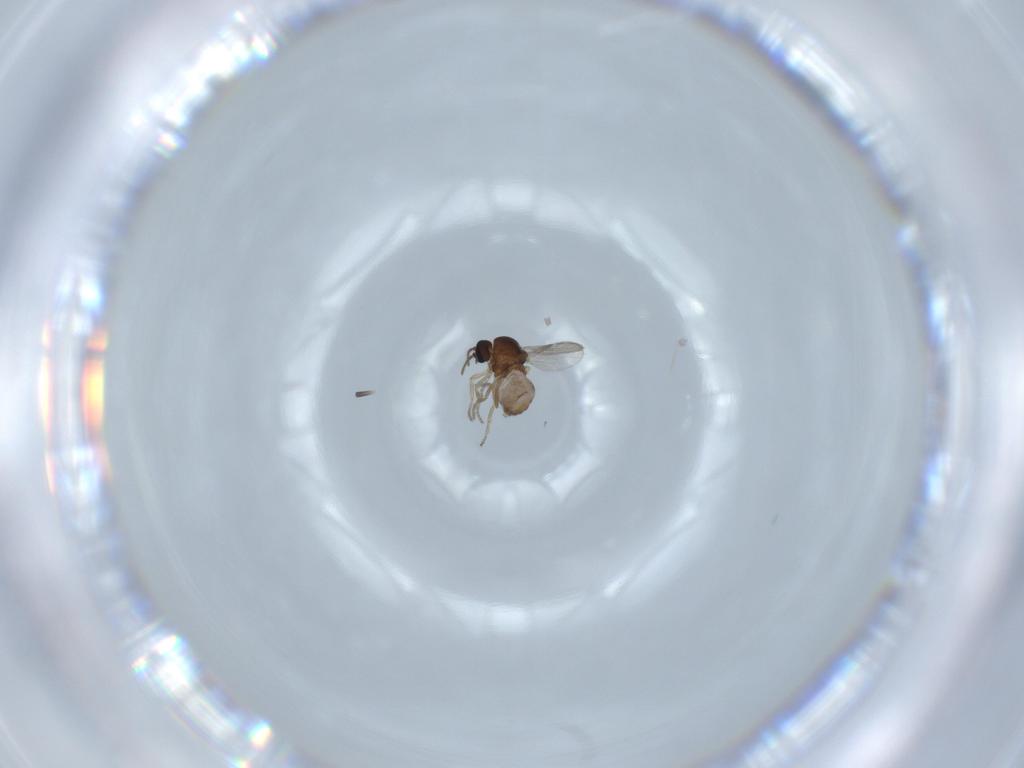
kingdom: Animalia
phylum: Arthropoda
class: Insecta
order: Diptera
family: Ceratopogonidae
